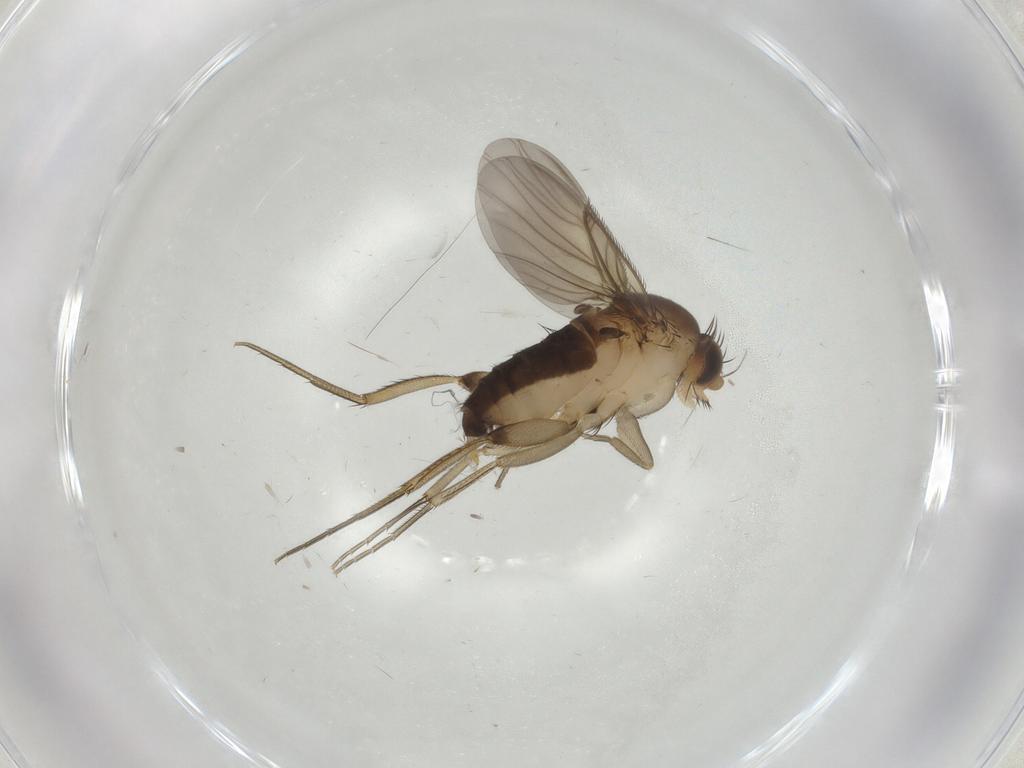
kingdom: Animalia
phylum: Arthropoda
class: Insecta
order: Diptera
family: Phoridae
